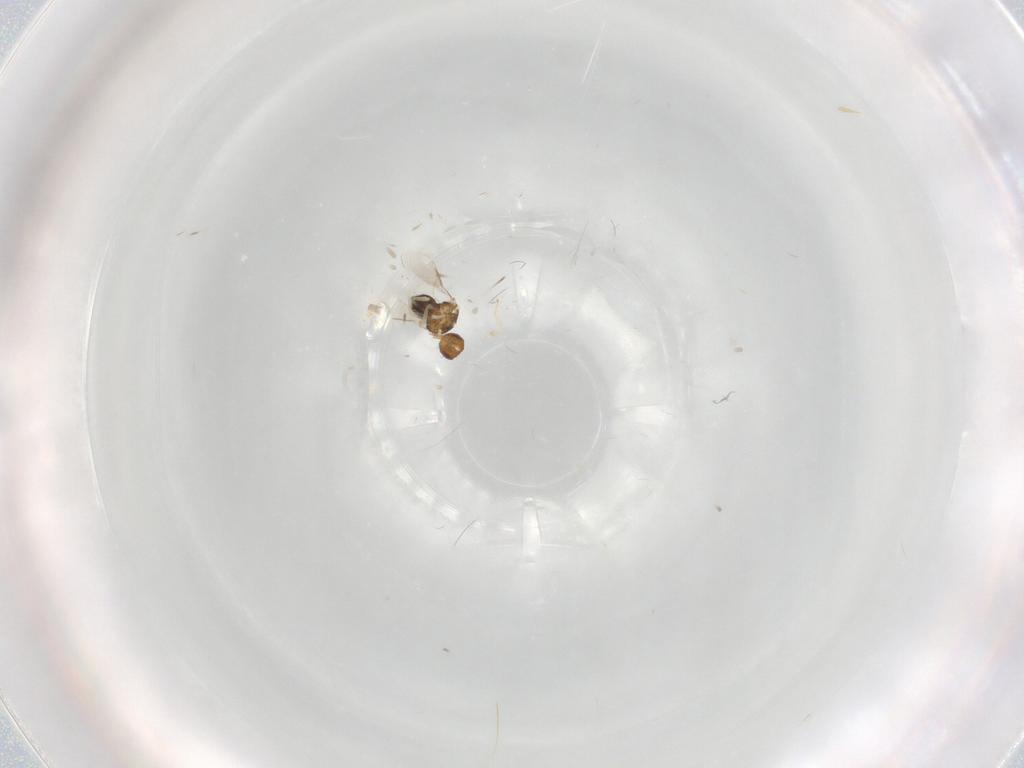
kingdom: Animalia
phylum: Arthropoda
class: Insecta
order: Hymenoptera
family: Aphelinidae
